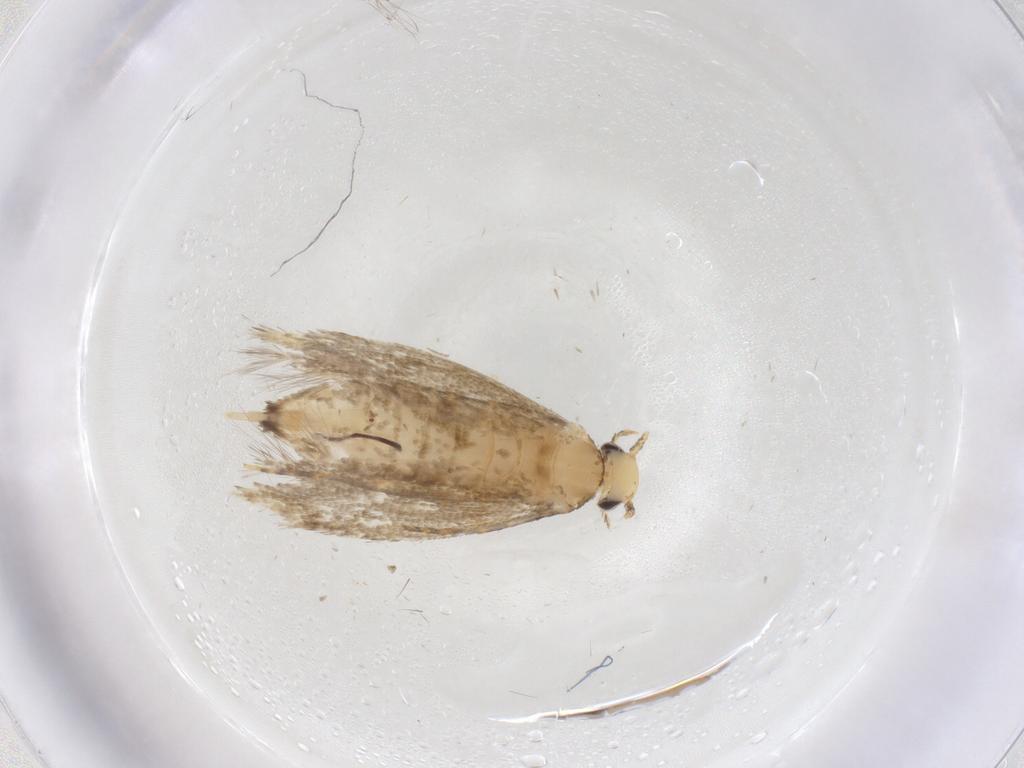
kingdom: Animalia
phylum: Arthropoda
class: Insecta
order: Lepidoptera
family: Tineidae
